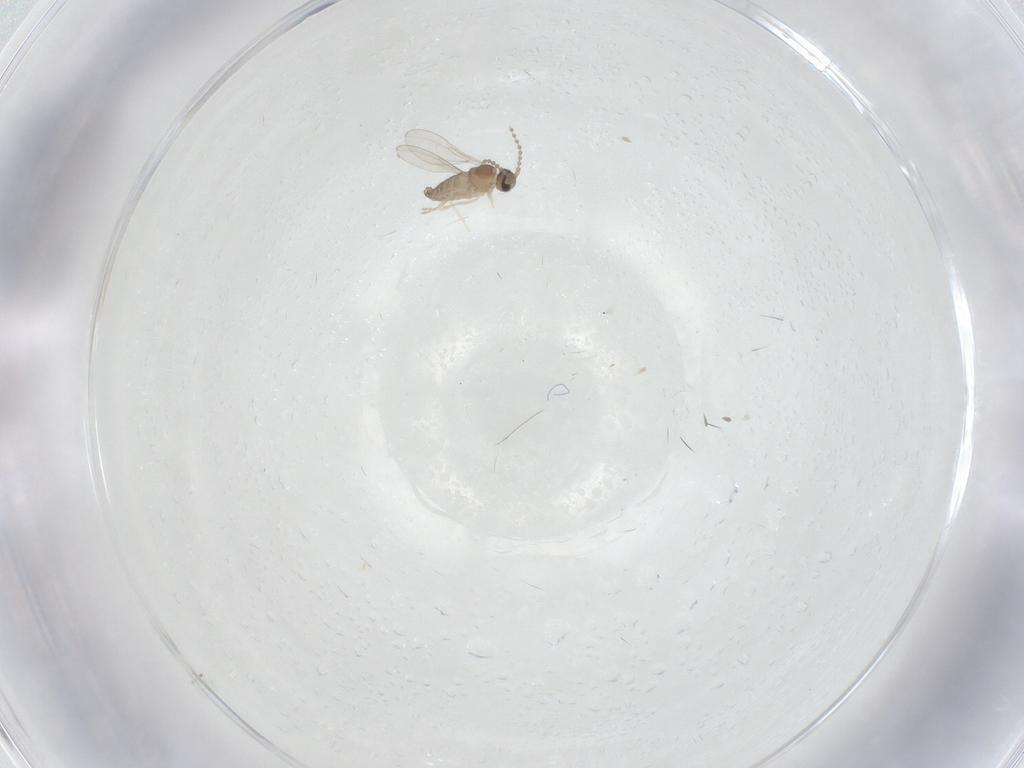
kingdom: Animalia
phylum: Arthropoda
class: Insecta
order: Diptera
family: Cecidomyiidae
